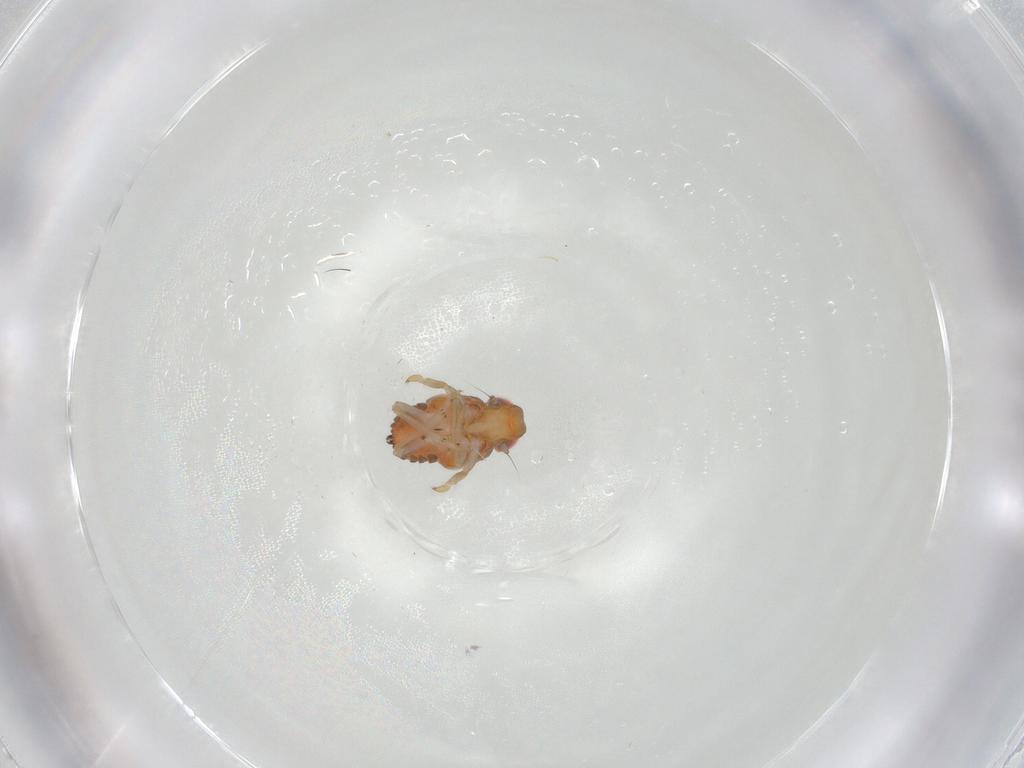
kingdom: Animalia
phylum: Arthropoda
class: Insecta
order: Hemiptera
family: Issidae
